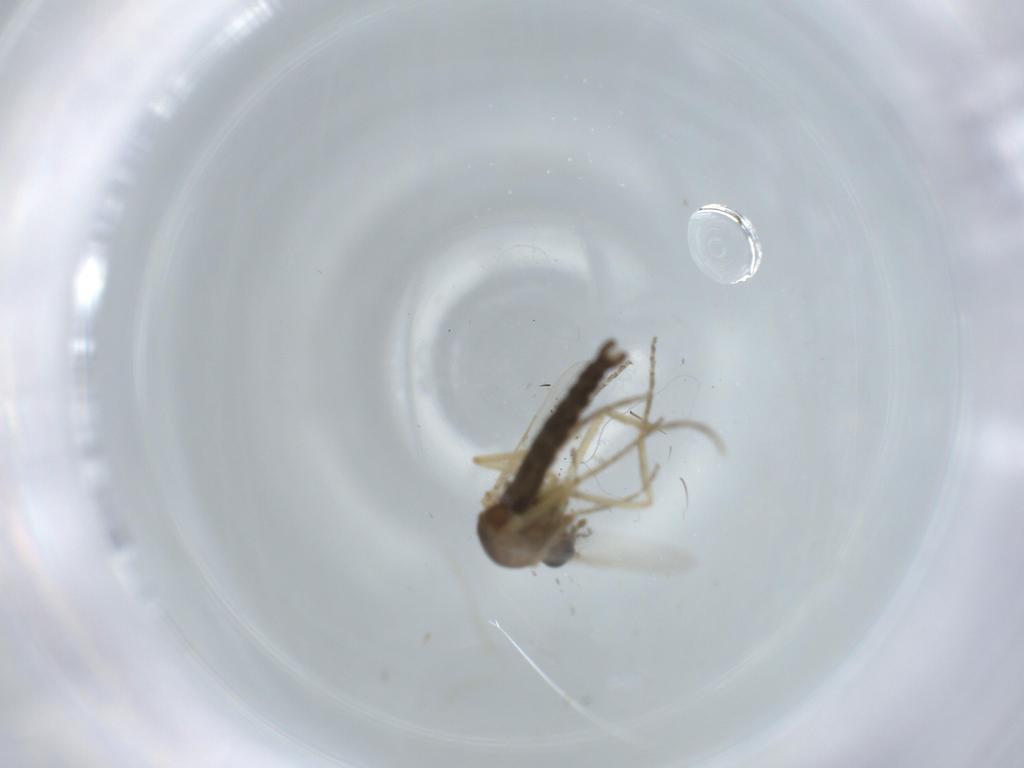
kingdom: Animalia
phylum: Arthropoda
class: Insecta
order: Diptera
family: Ceratopogonidae
